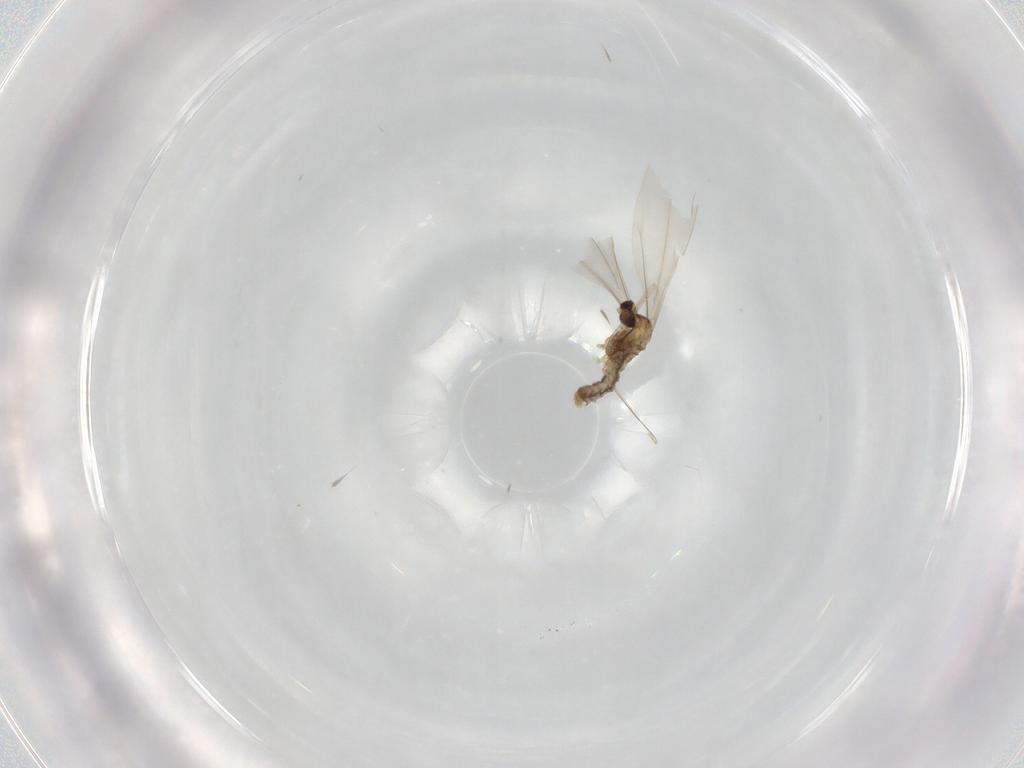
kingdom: Animalia
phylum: Arthropoda
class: Insecta
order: Diptera
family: Cecidomyiidae
